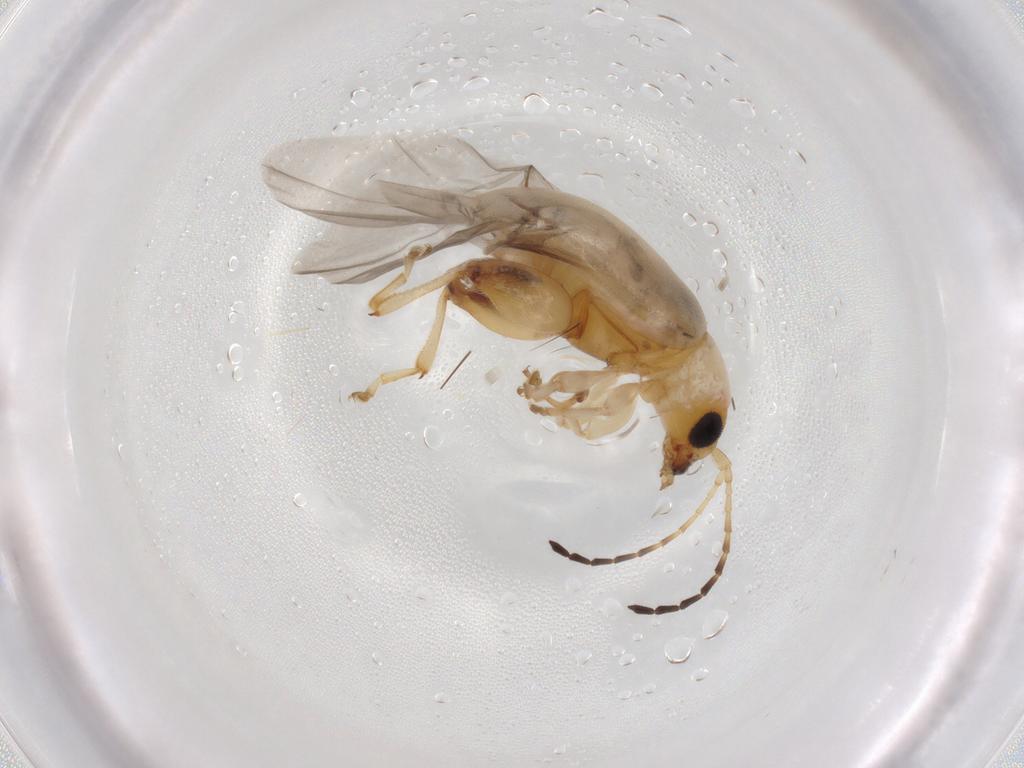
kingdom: Animalia
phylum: Arthropoda
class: Insecta
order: Coleoptera
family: Chrysomelidae
